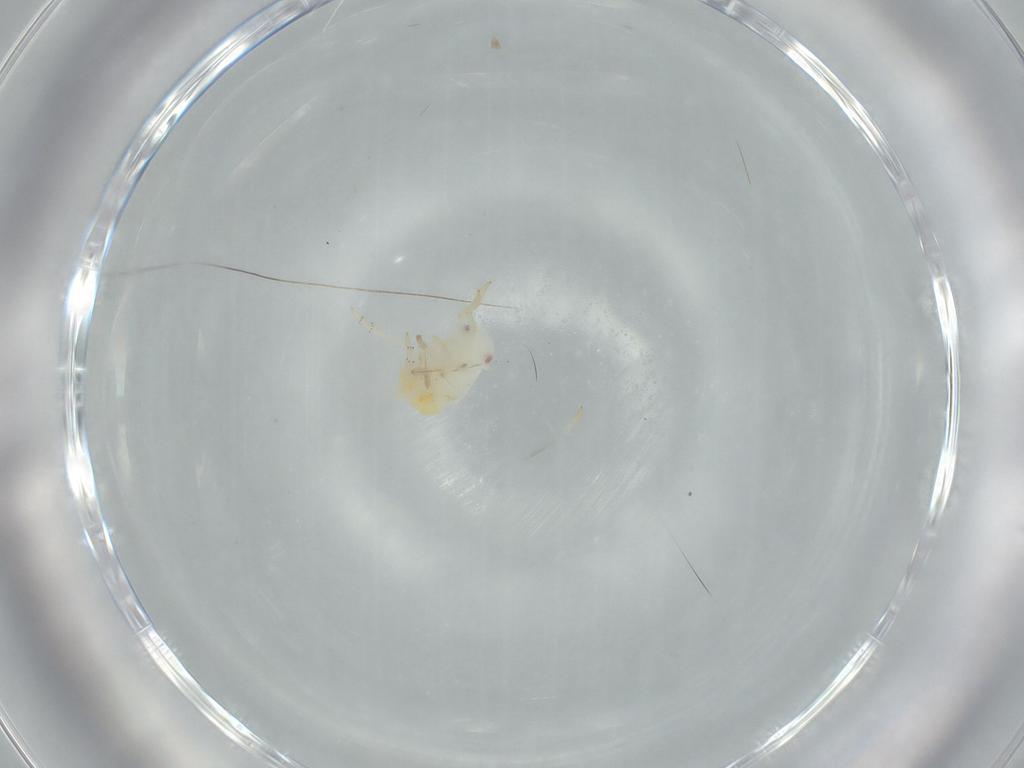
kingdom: Animalia
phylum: Arthropoda
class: Insecta
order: Hemiptera
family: Flatidae
